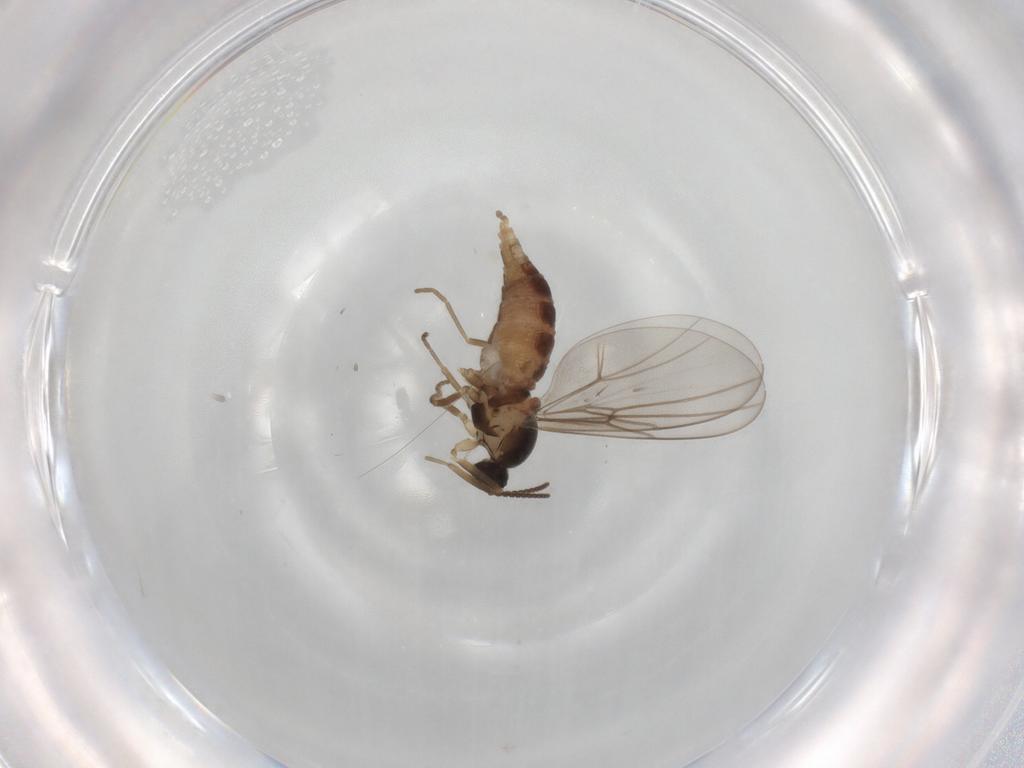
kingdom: Animalia
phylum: Arthropoda
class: Insecta
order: Diptera
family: Cecidomyiidae
